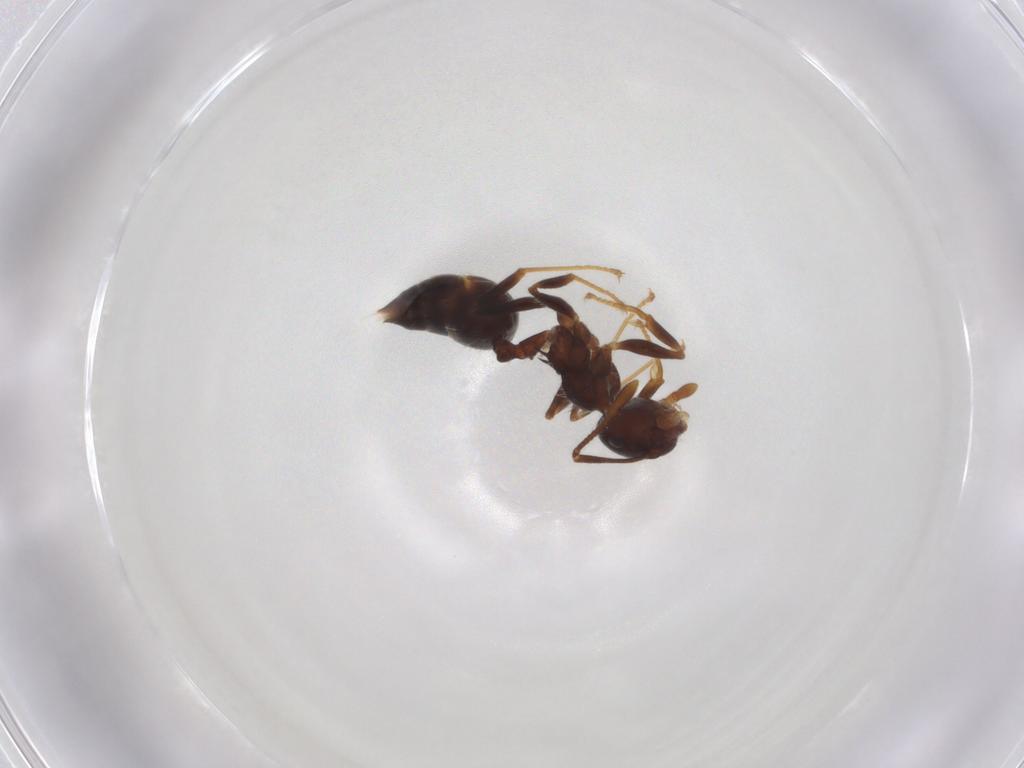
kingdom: Animalia
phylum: Arthropoda
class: Insecta
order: Hymenoptera
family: Formicidae
